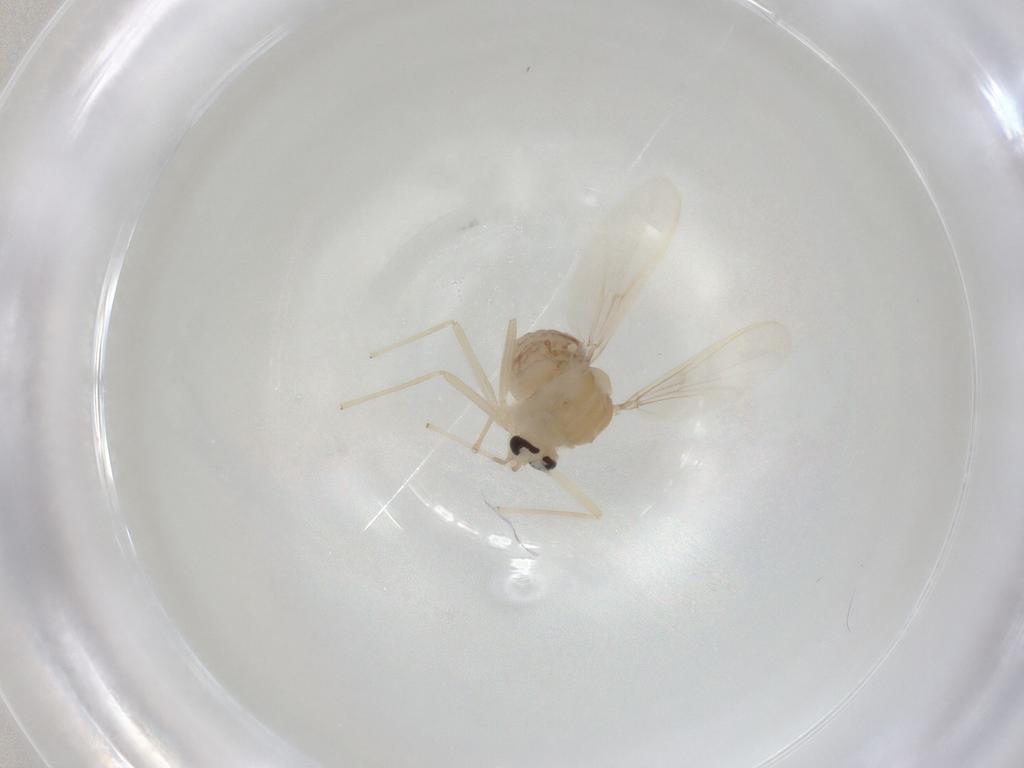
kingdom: Animalia
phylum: Arthropoda
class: Insecta
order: Diptera
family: Chironomidae
